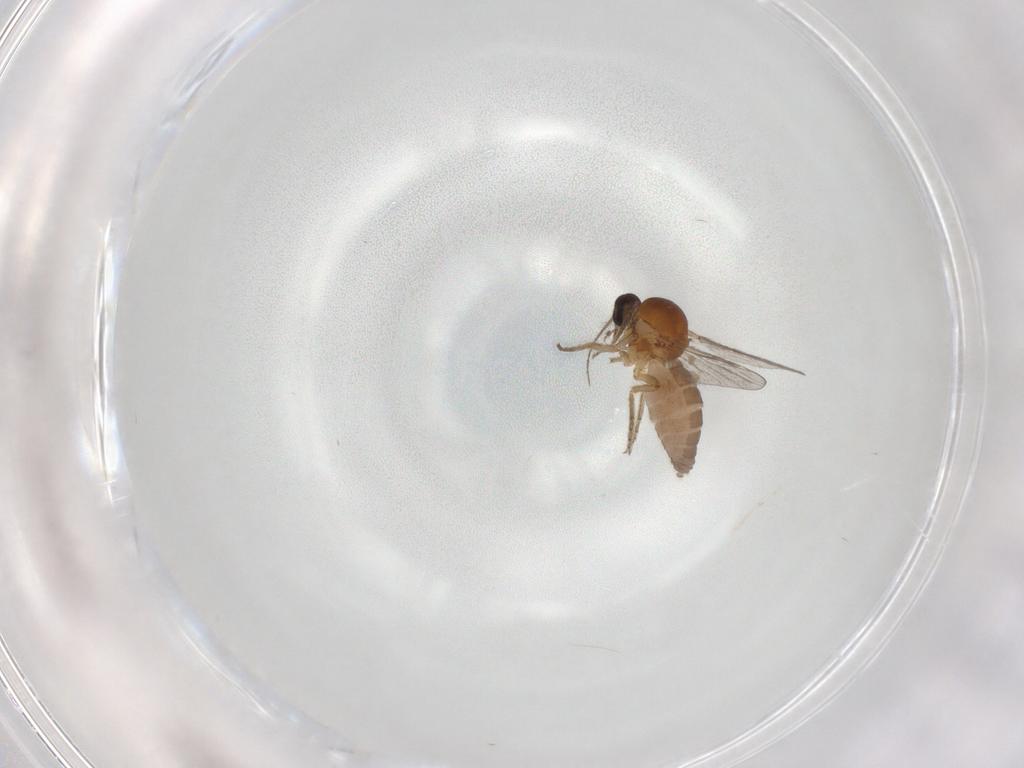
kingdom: Animalia
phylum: Arthropoda
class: Insecta
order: Diptera
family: Ceratopogonidae
